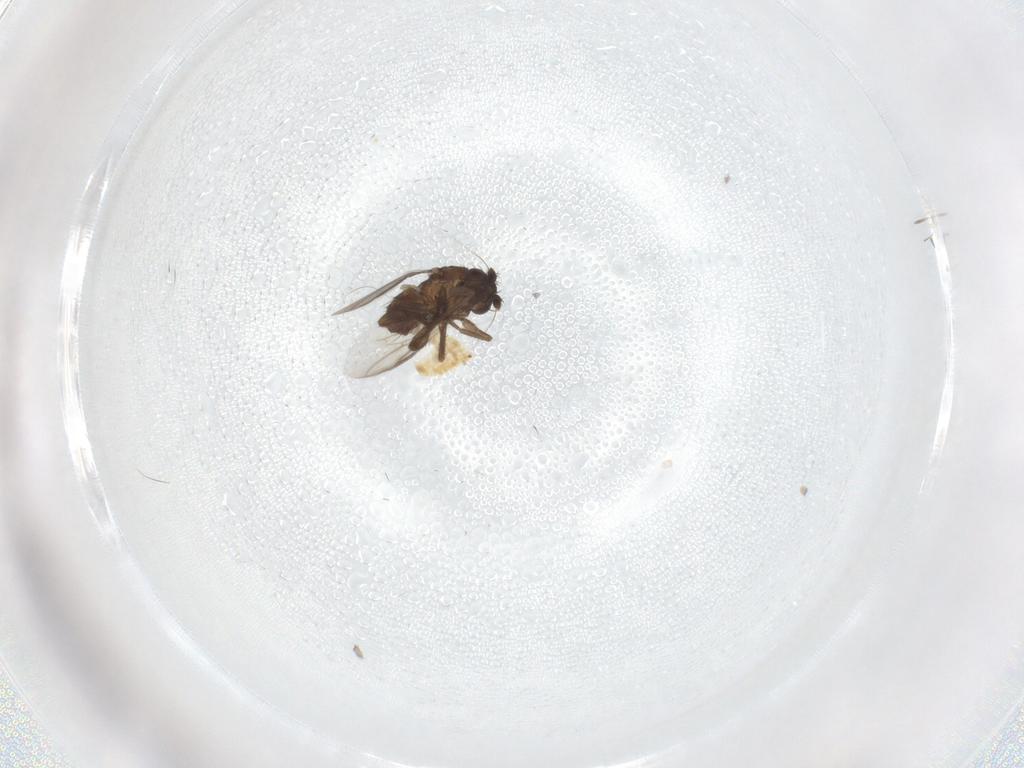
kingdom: Animalia
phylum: Arthropoda
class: Insecta
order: Diptera
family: Sphaeroceridae
